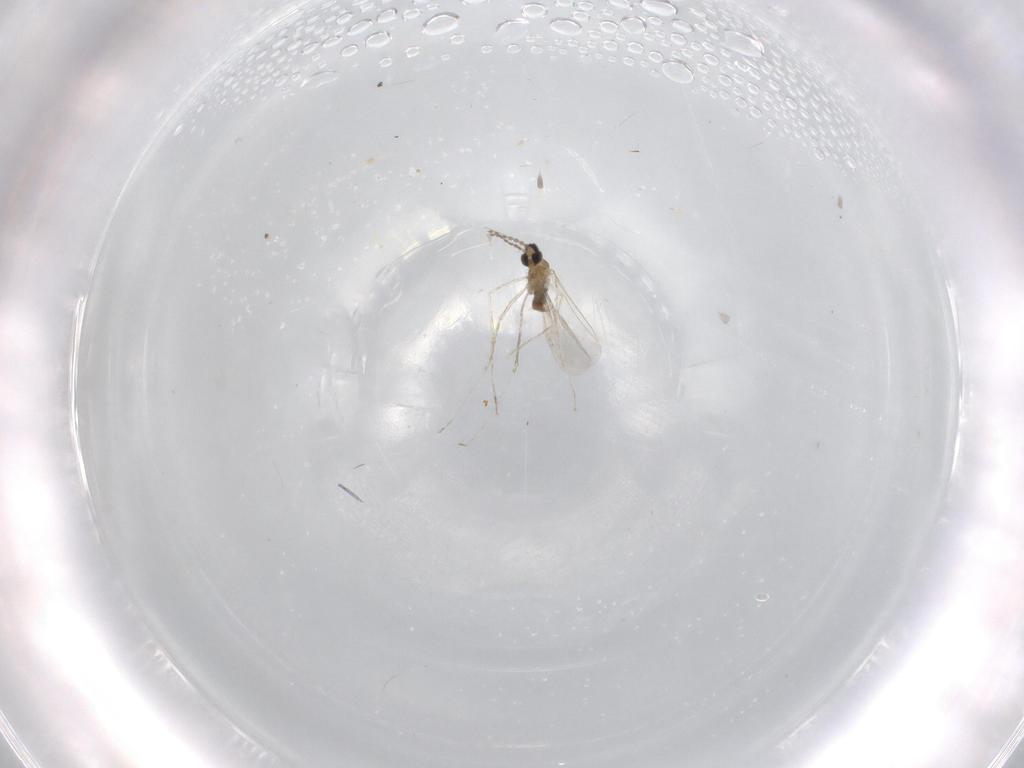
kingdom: Animalia
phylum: Arthropoda
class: Insecta
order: Diptera
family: Cecidomyiidae
